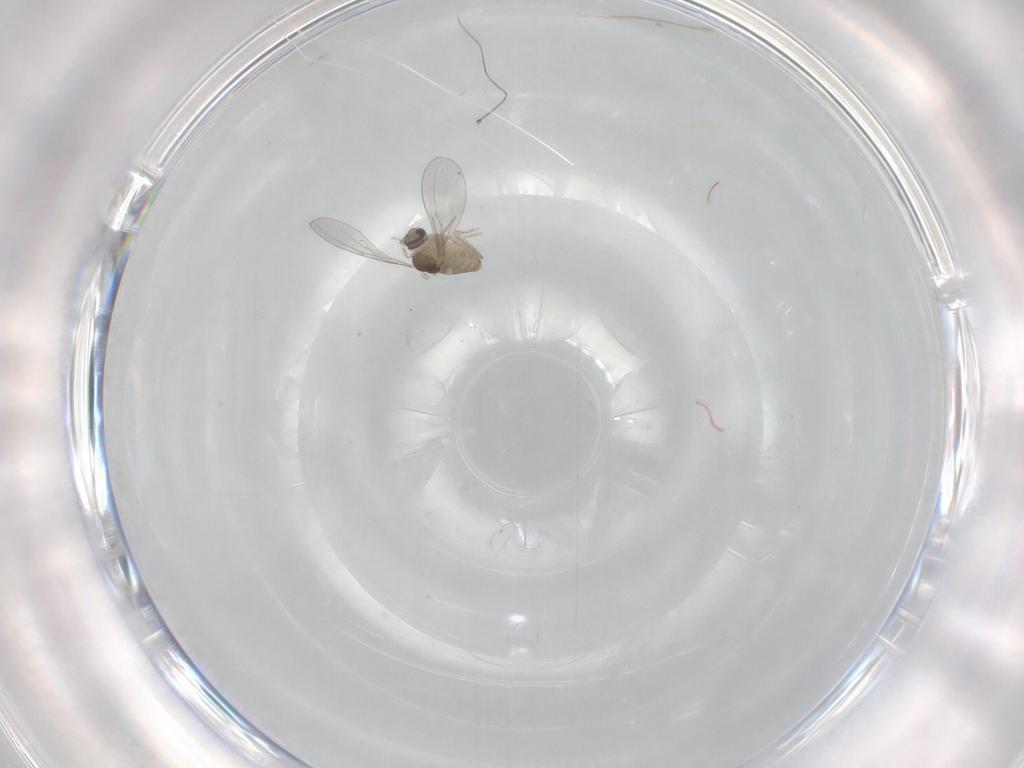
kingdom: Animalia
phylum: Arthropoda
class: Insecta
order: Diptera
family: Cecidomyiidae
